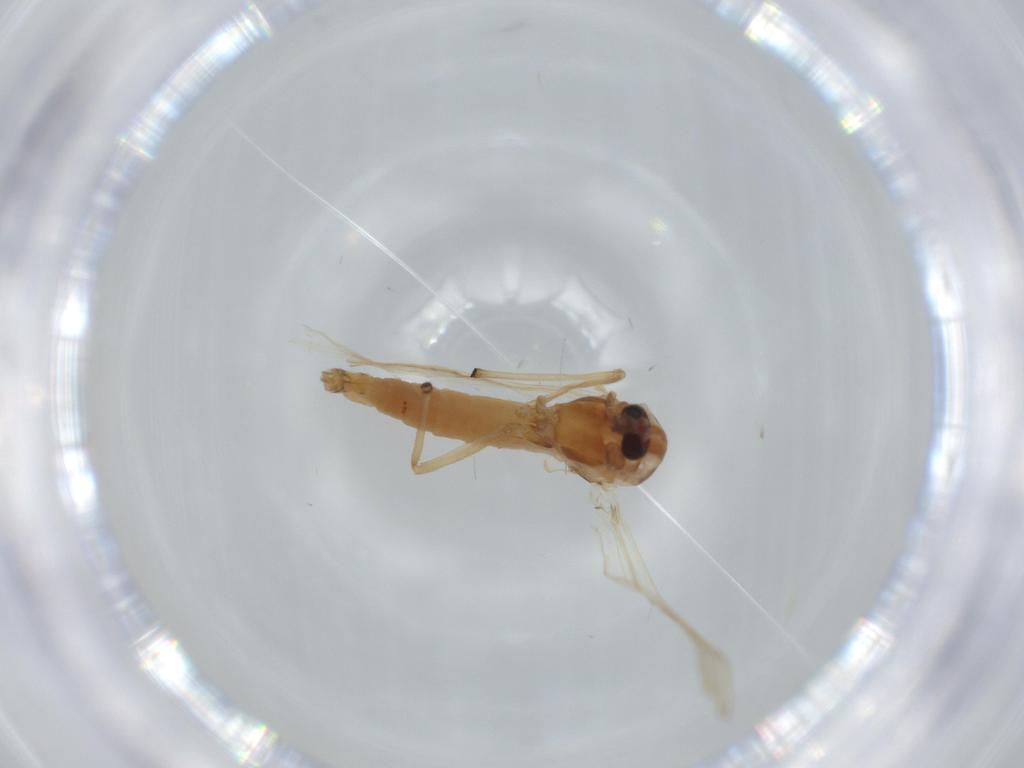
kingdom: Animalia
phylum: Arthropoda
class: Insecta
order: Diptera
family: Chironomidae
